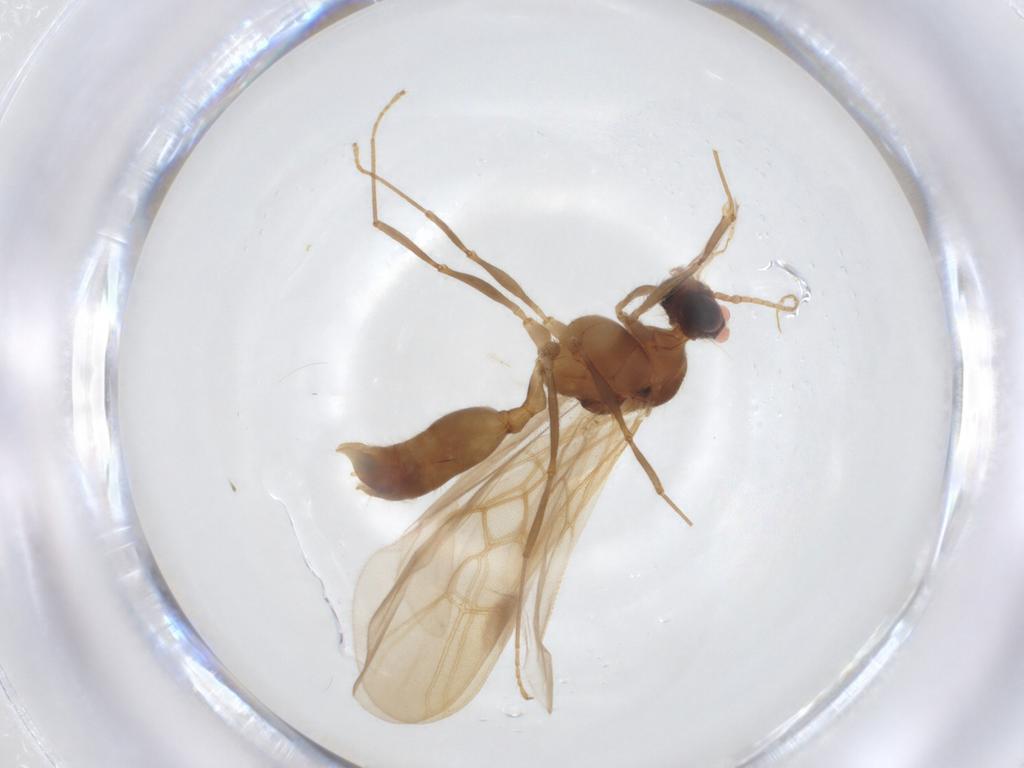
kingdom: Animalia
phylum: Arthropoda
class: Insecta
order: Hymenoptera
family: Formicidae
